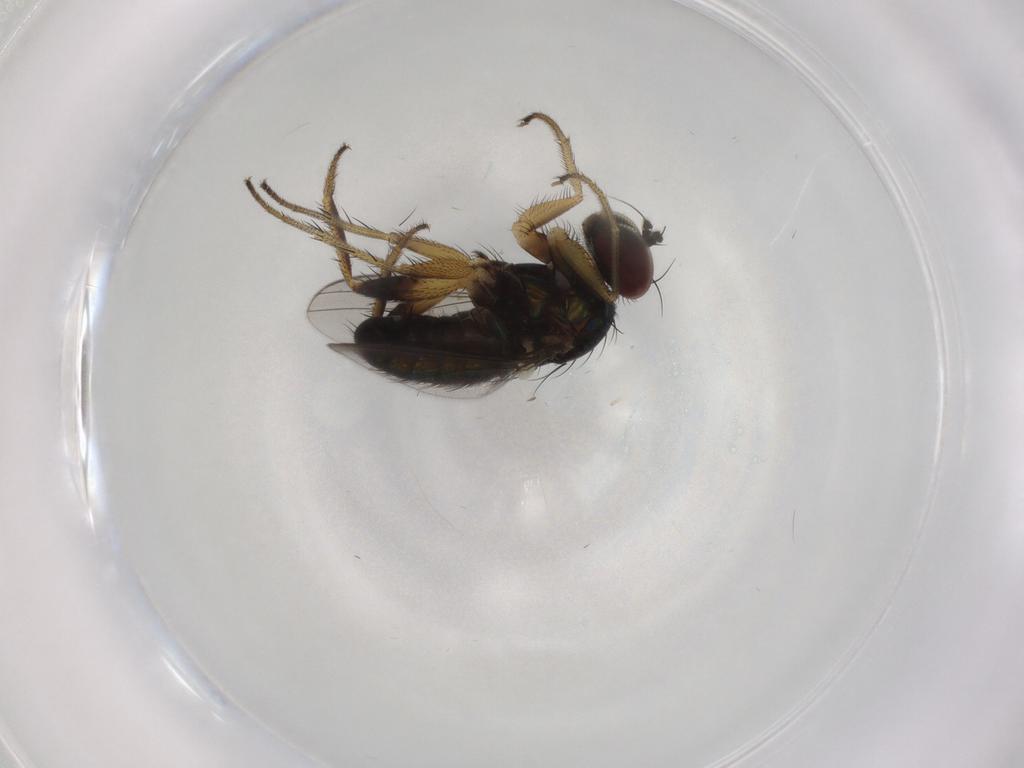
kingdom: Animalia
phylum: Arthropoda
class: Insecta
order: Diptera
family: Dolichopodidae
